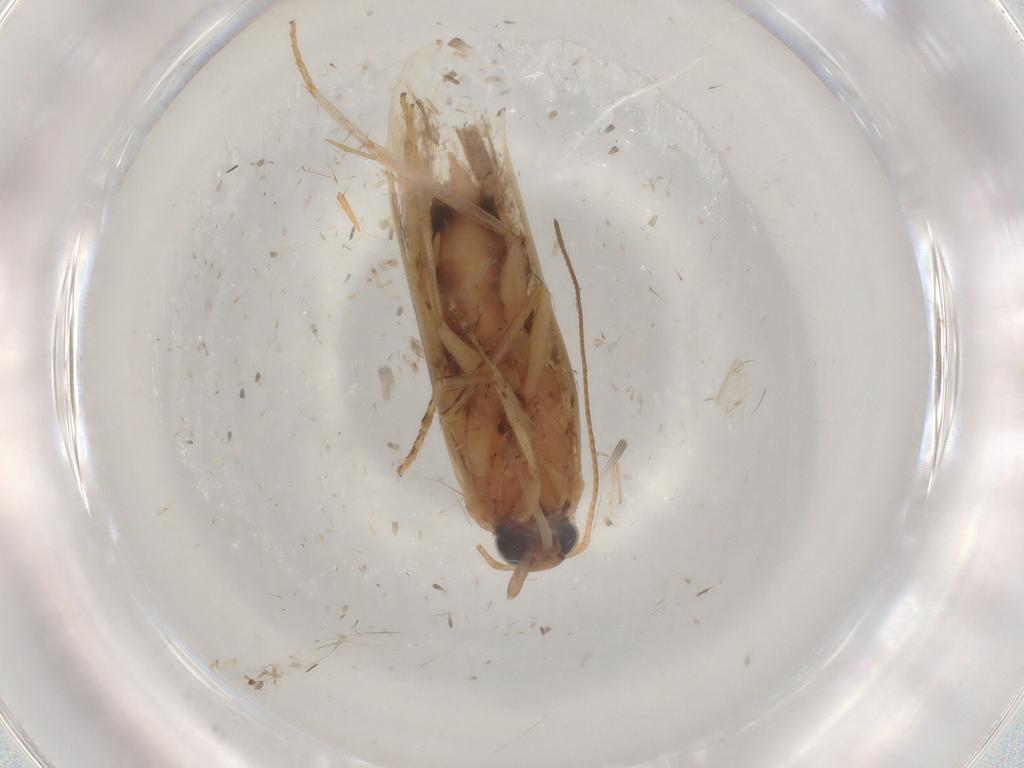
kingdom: Animalia
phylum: Arthropoda
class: Insecta
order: Lepidoptera
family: Gelechiidae
